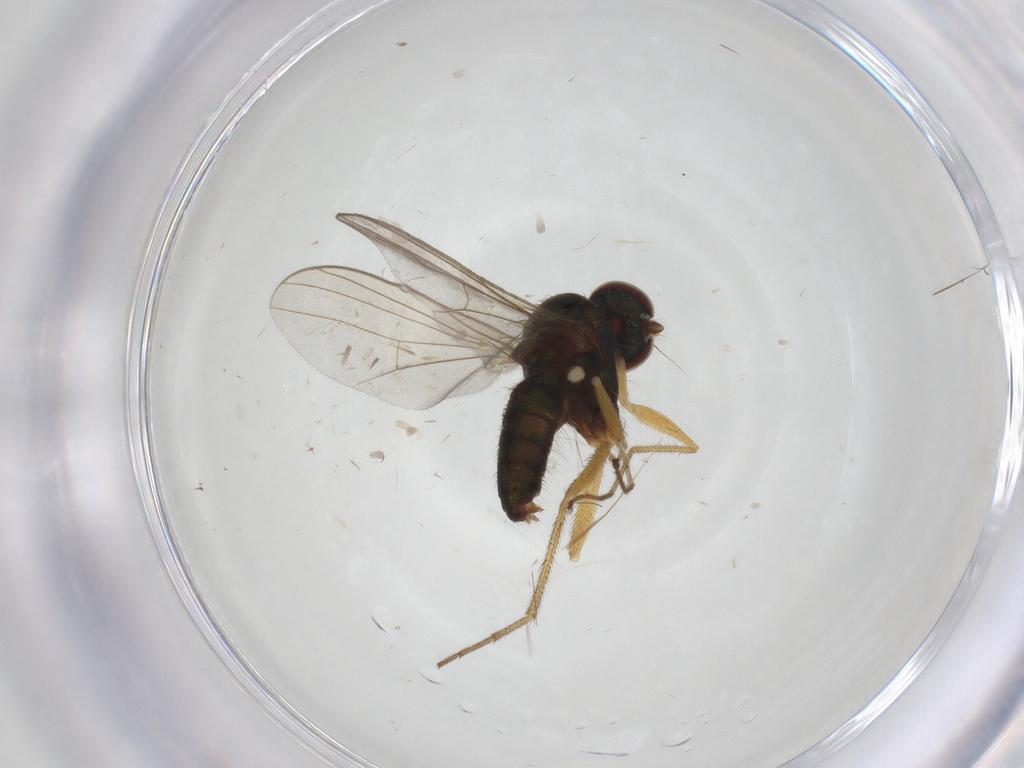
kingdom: Animalia
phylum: Arthropoda
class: Insecta
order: Diptera
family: Dolichopodidae
